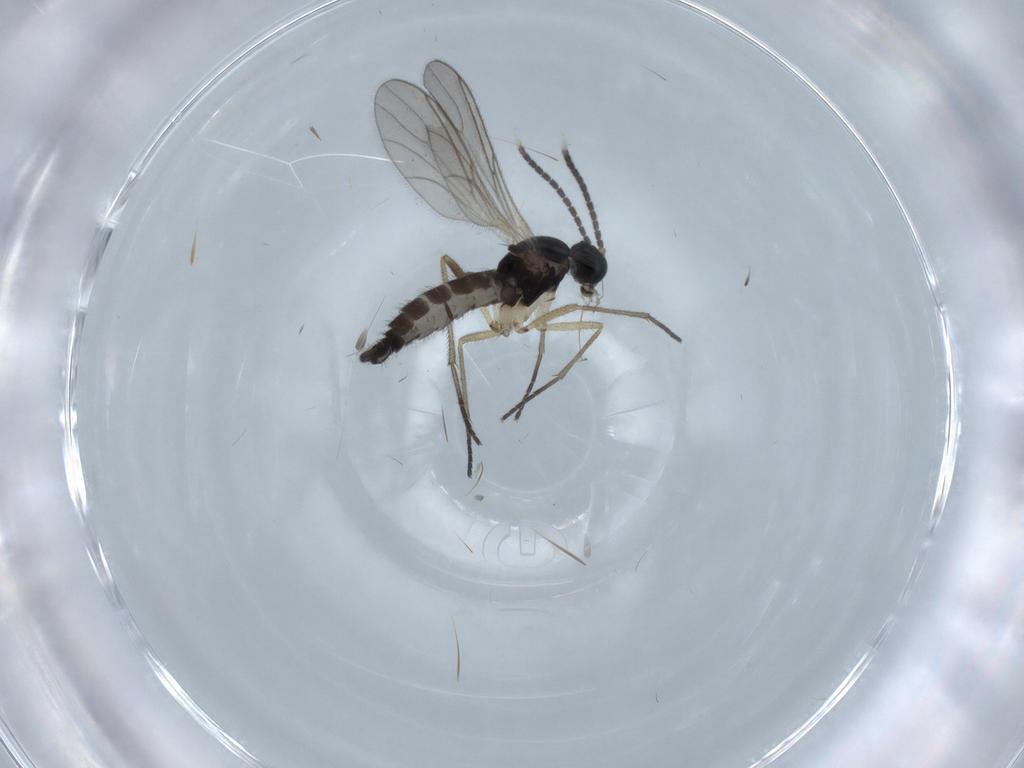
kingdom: Animalia
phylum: Arthropoda
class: Insecta
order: Diptera
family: Sciaridae
